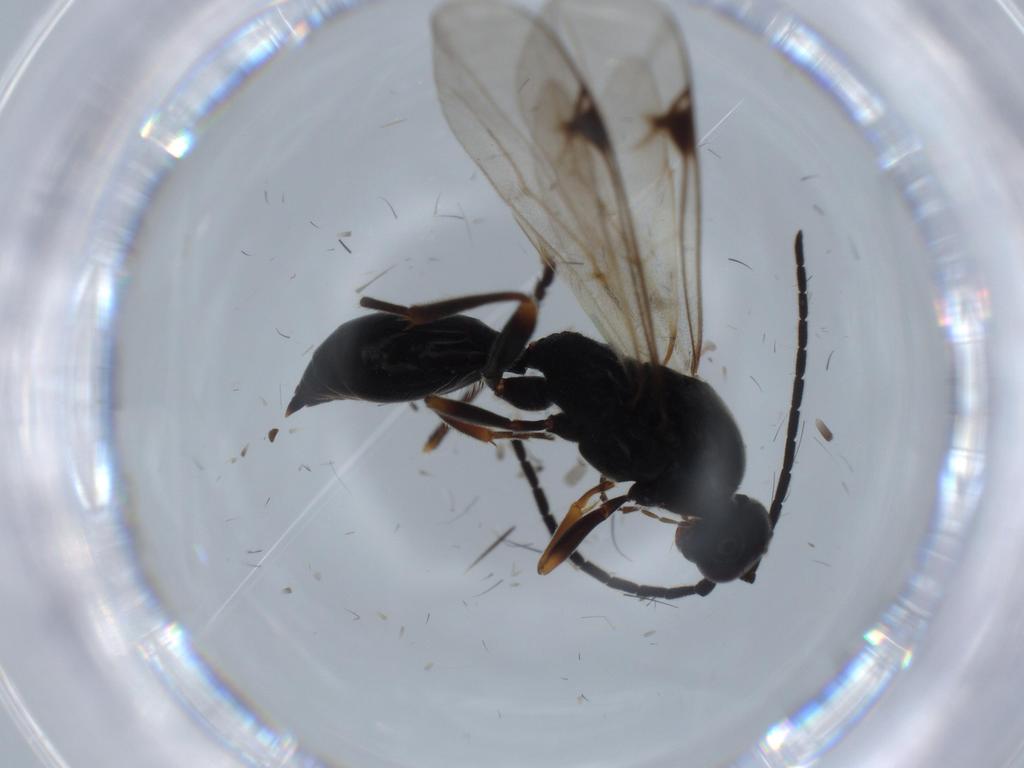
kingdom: Animalia
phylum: Arthropoda
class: Insecta
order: Hymenoptera
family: Proctotrupidae
